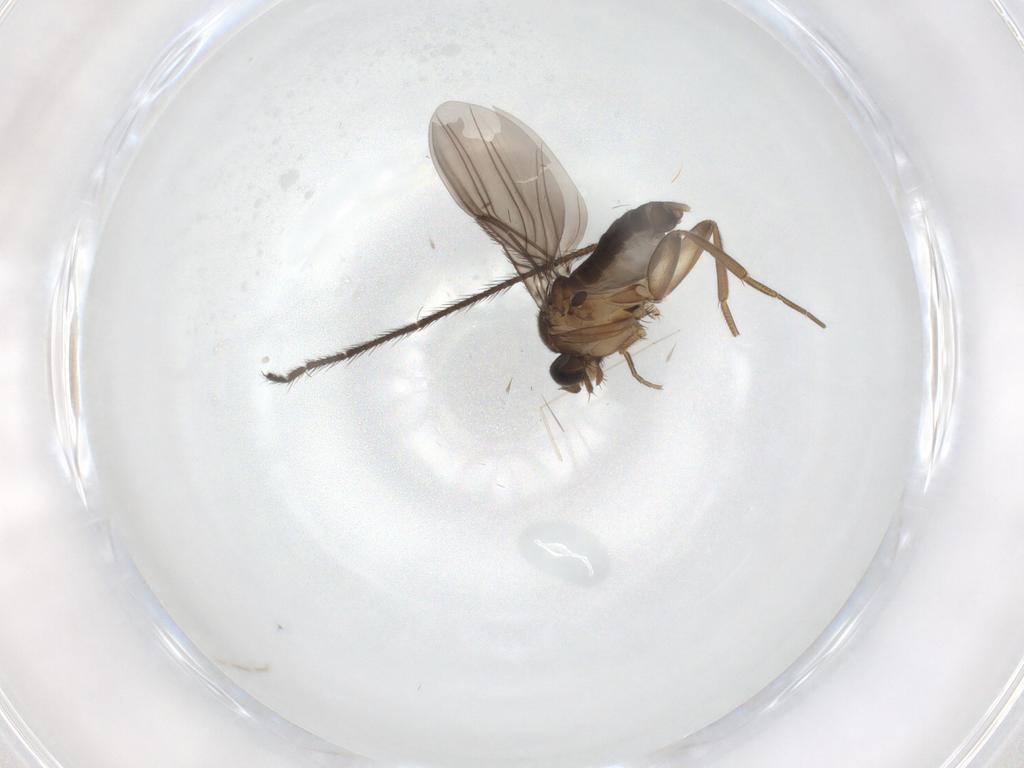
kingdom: Animalia
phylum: Arthropoda
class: Insecta
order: Diptera
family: Limoniidae
